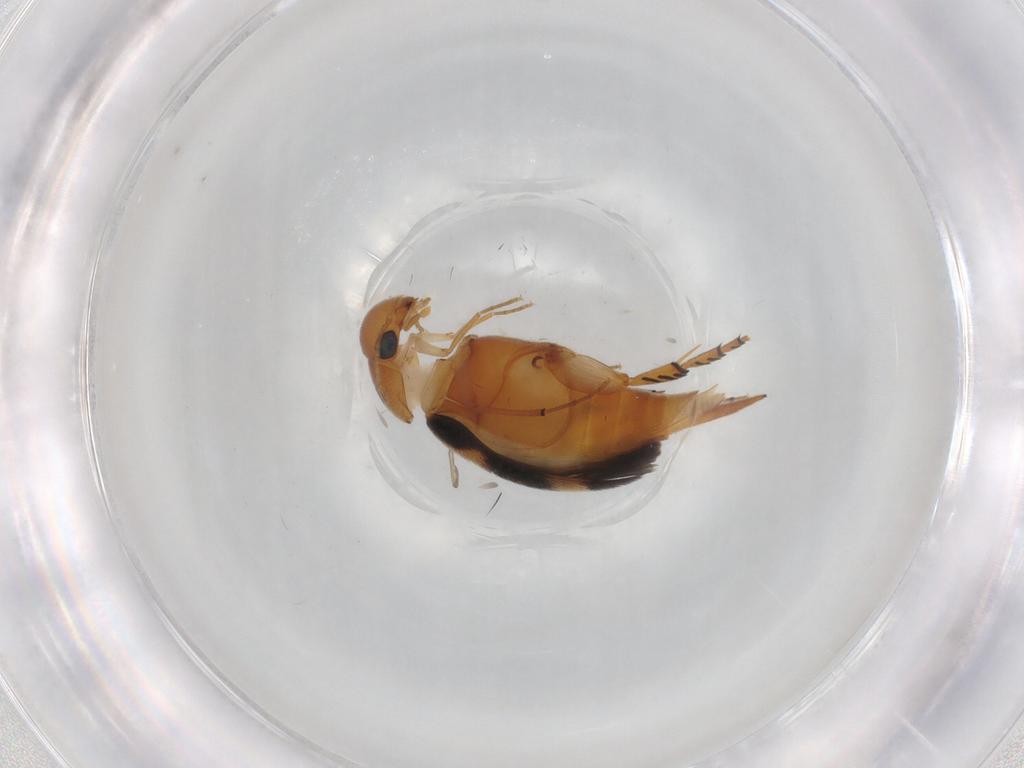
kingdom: Animalia
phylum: Arthropoda
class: Insecta
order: Coleoptera
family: Mordellidae
